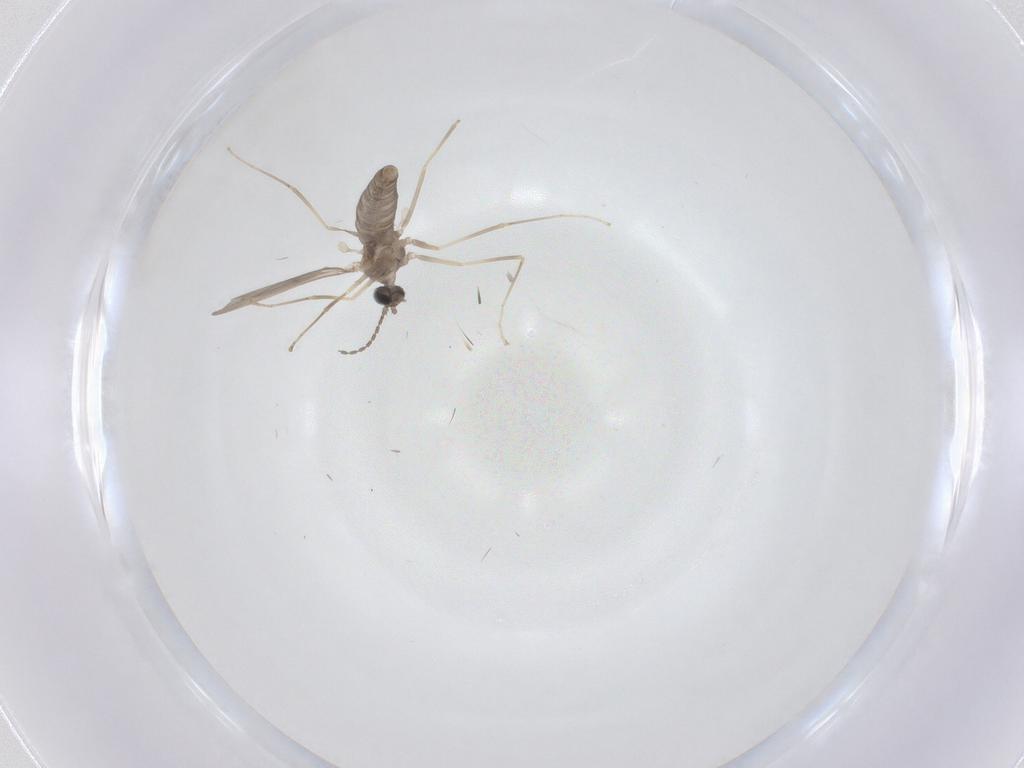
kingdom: Animalia
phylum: Arthropoda
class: Insecta
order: Diptera
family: Cecidomyiidae
